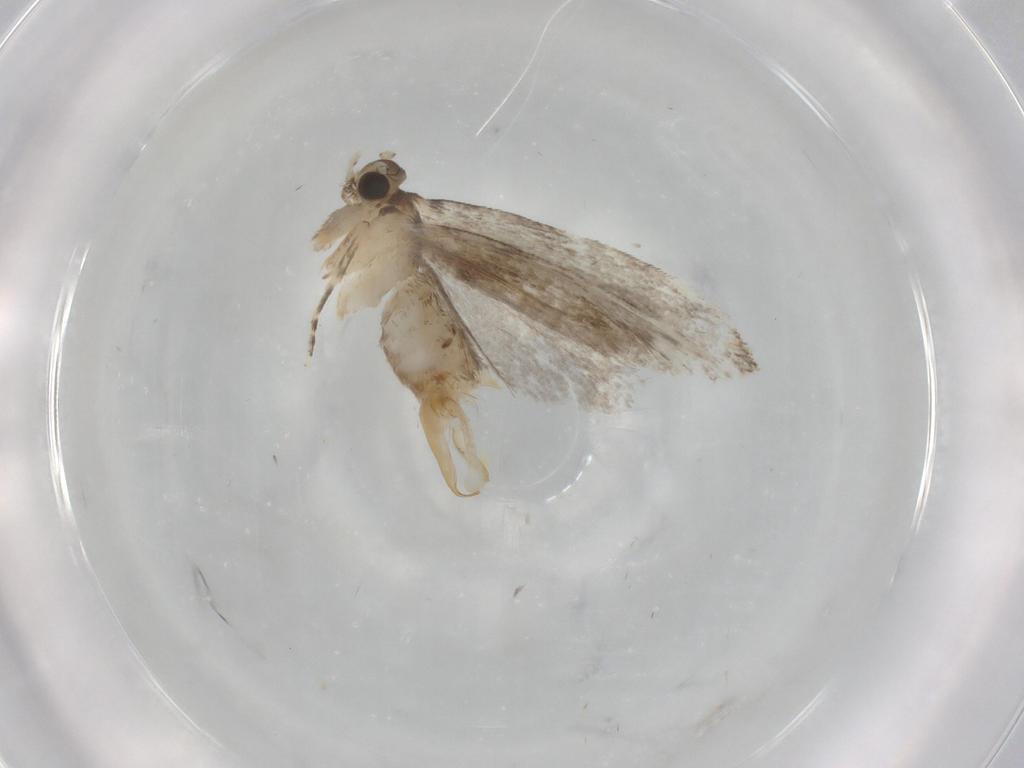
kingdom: Animalia
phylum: Arthropoda
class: Insecta
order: Lepidoptera
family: Tineidae
